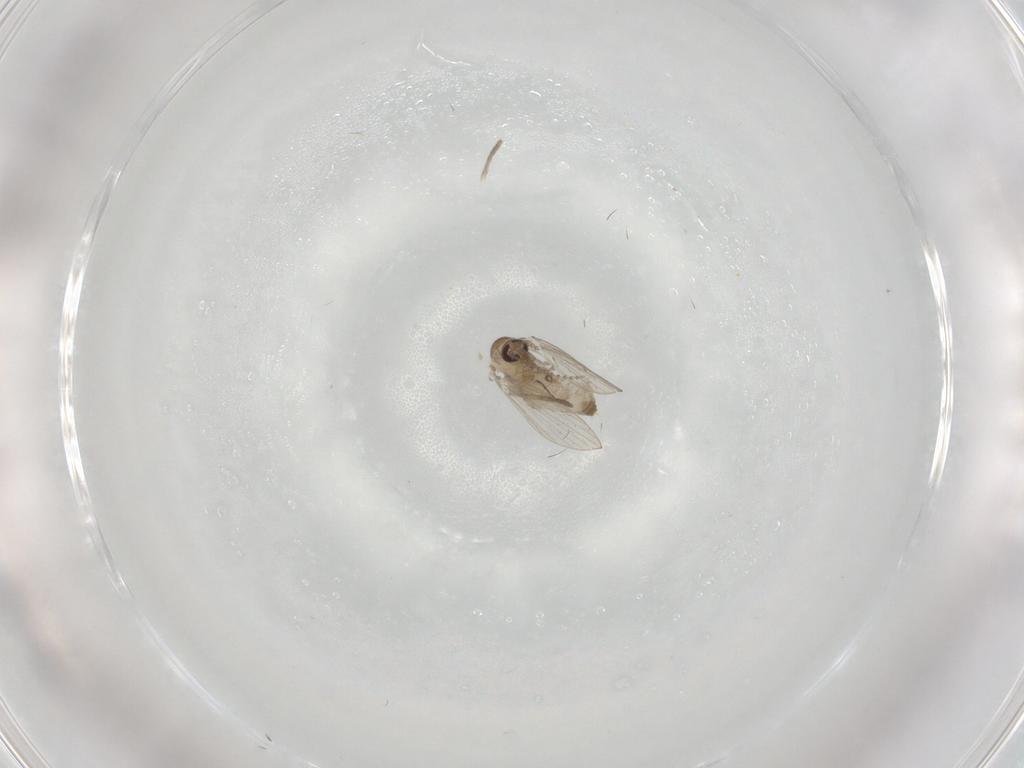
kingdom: Animalia
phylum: Arthropoda
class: Insecta
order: Diptera
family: Psychodidae
